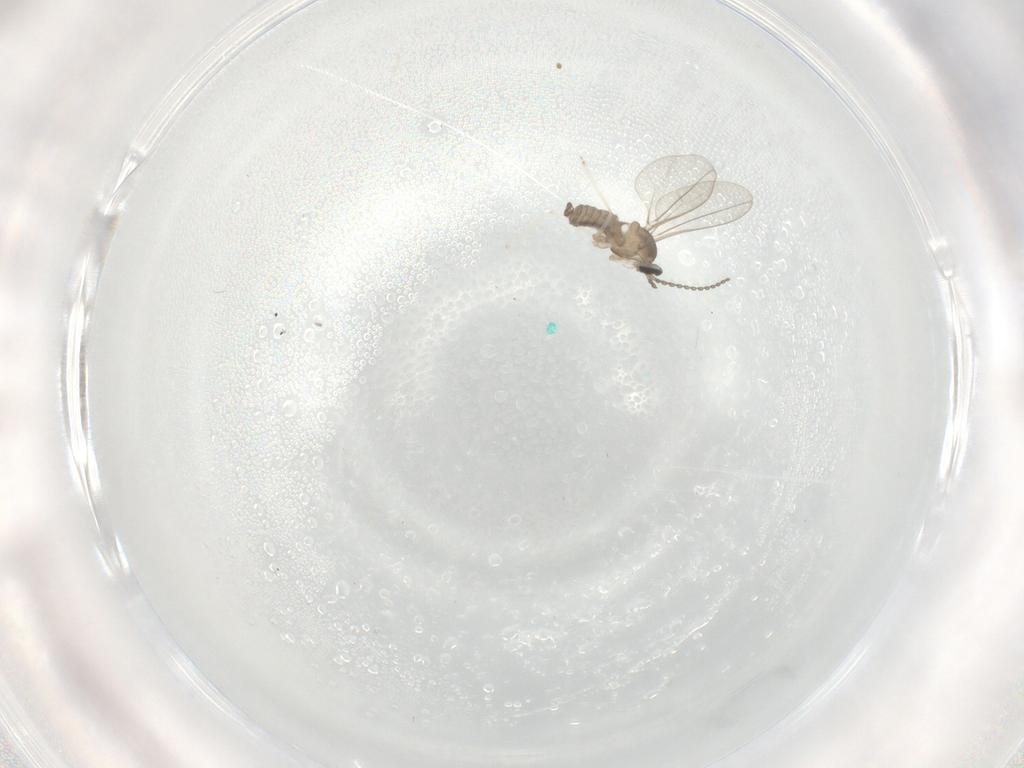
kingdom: Animalia
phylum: Arthropoda
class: Insecta
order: Diptera
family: Cecidomyiidae
